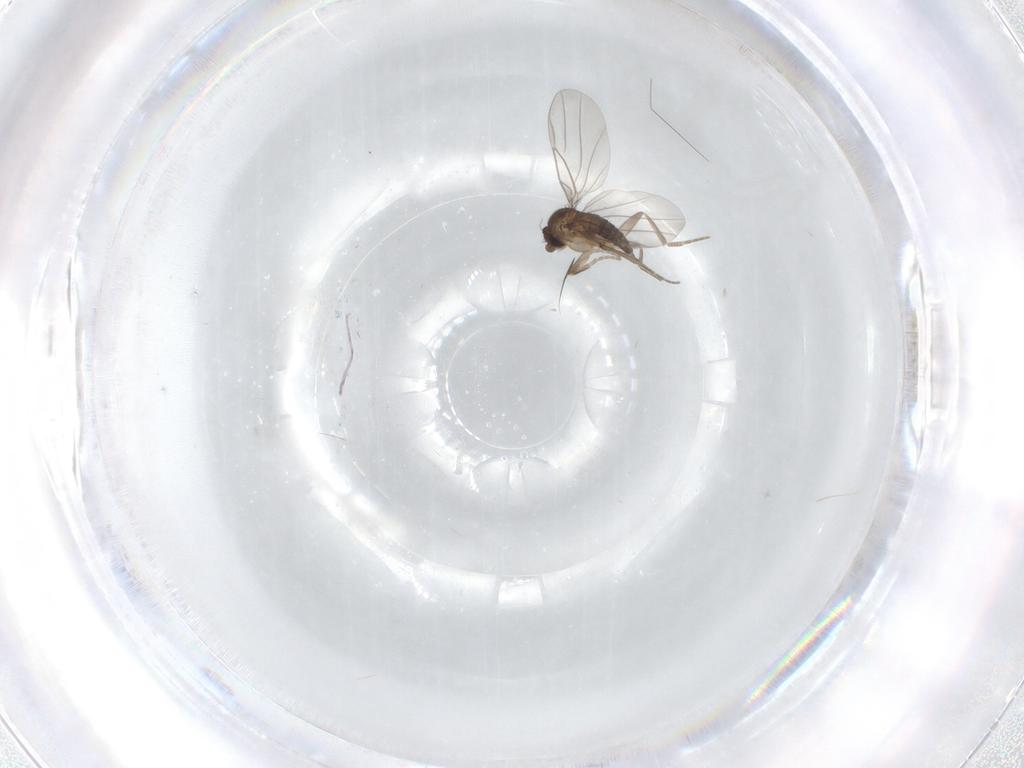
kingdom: Animalia
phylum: Arthropoda
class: Insecta
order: Diptera
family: Phoridae
